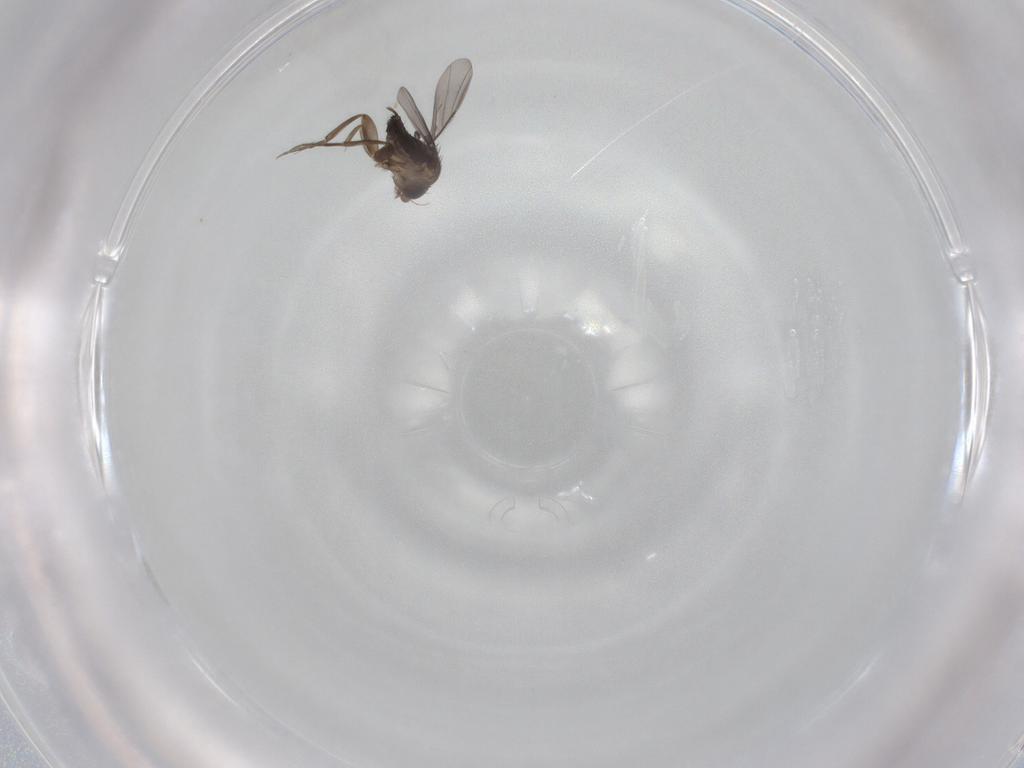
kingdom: Animalia
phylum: Arthropoda
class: Insecta
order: Diptera
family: Phoridae
